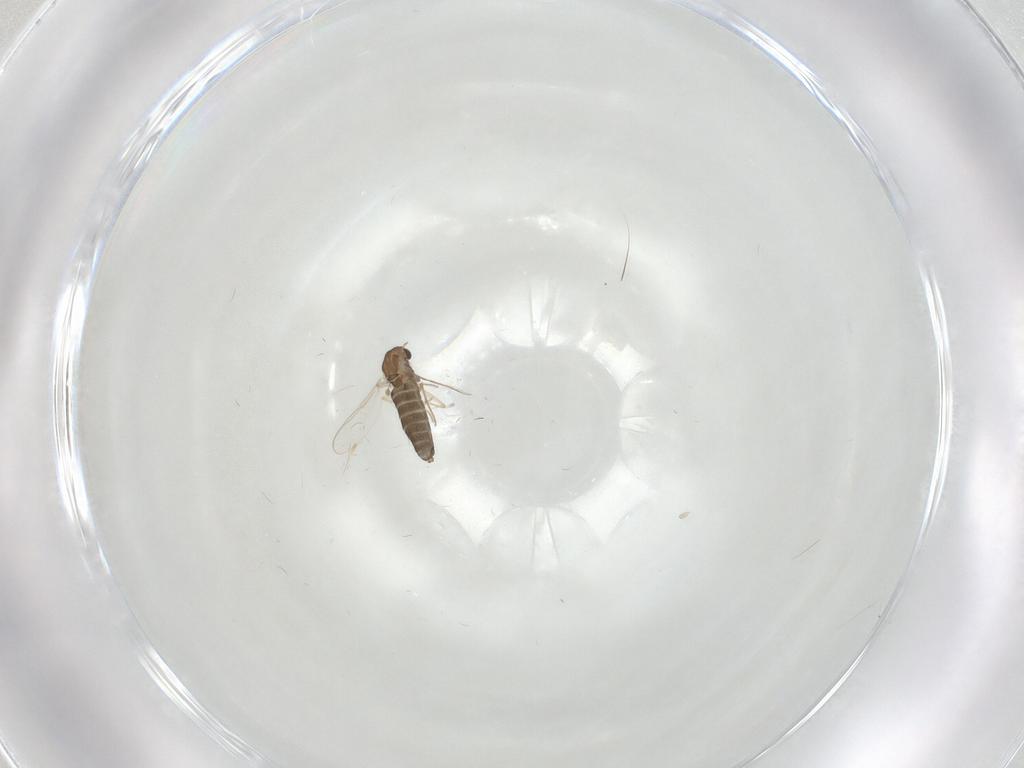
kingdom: Animalia
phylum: Arthropoda
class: Insecta
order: Diptera
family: Chironomidae
